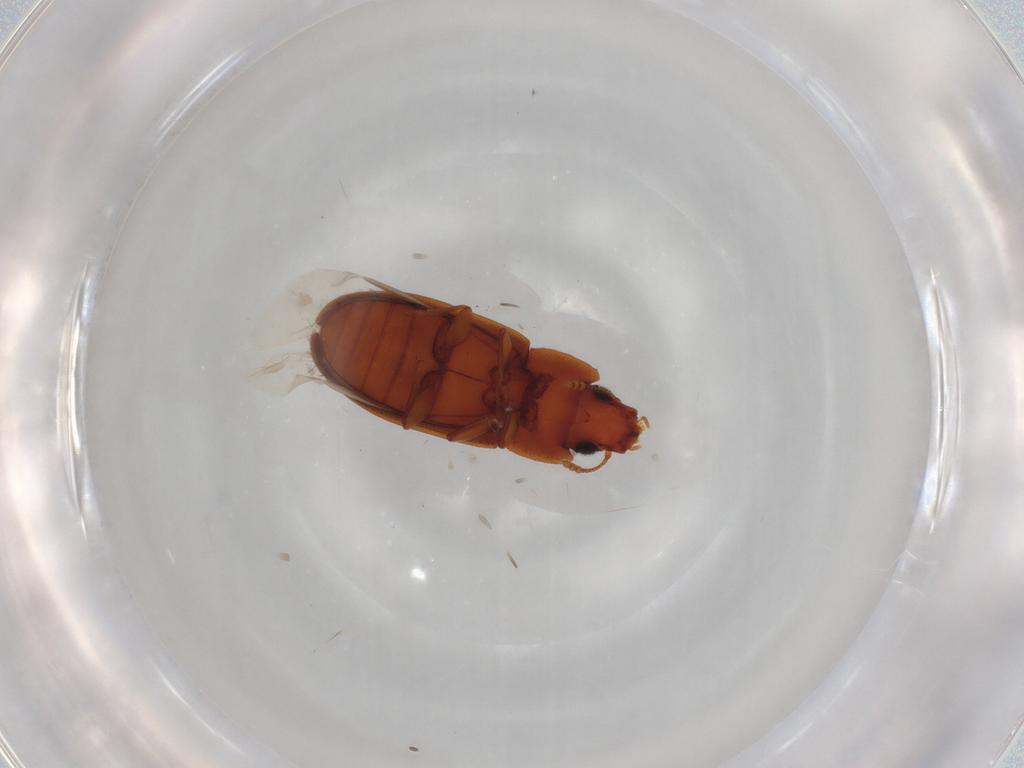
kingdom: Animalia
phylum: Arthropoda
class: Insecta
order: Coleoptera
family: Laemophloeidae
